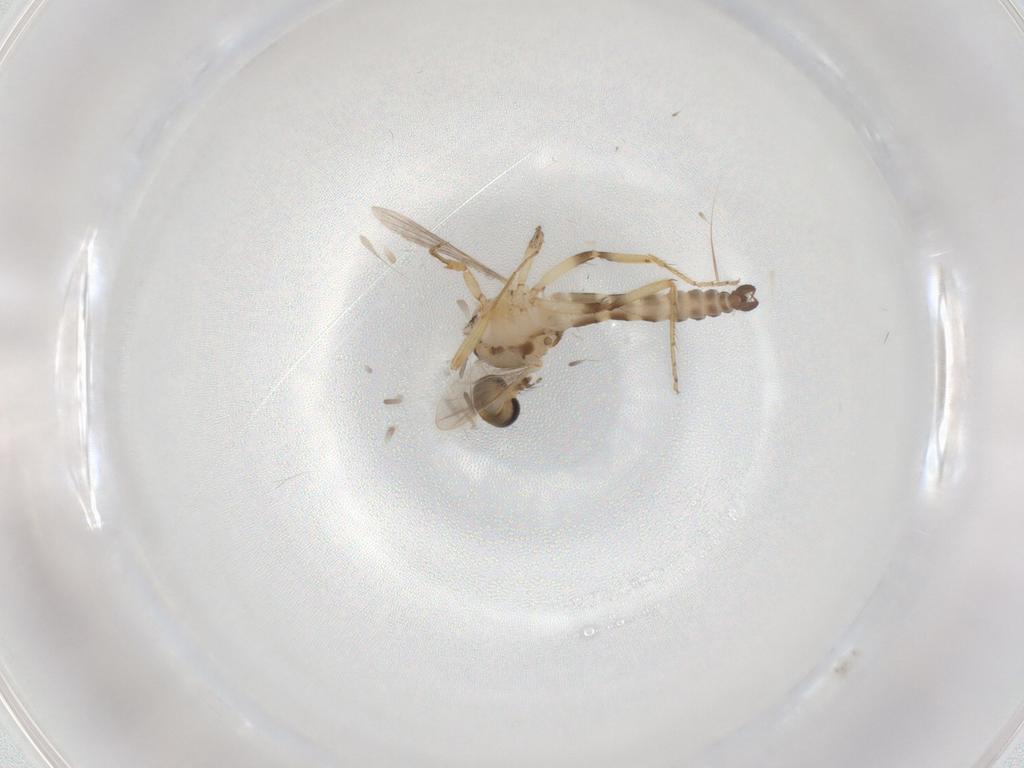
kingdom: Animalia
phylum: Arthropoda
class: Insecta
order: Diptera
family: Ceratopogonidae
